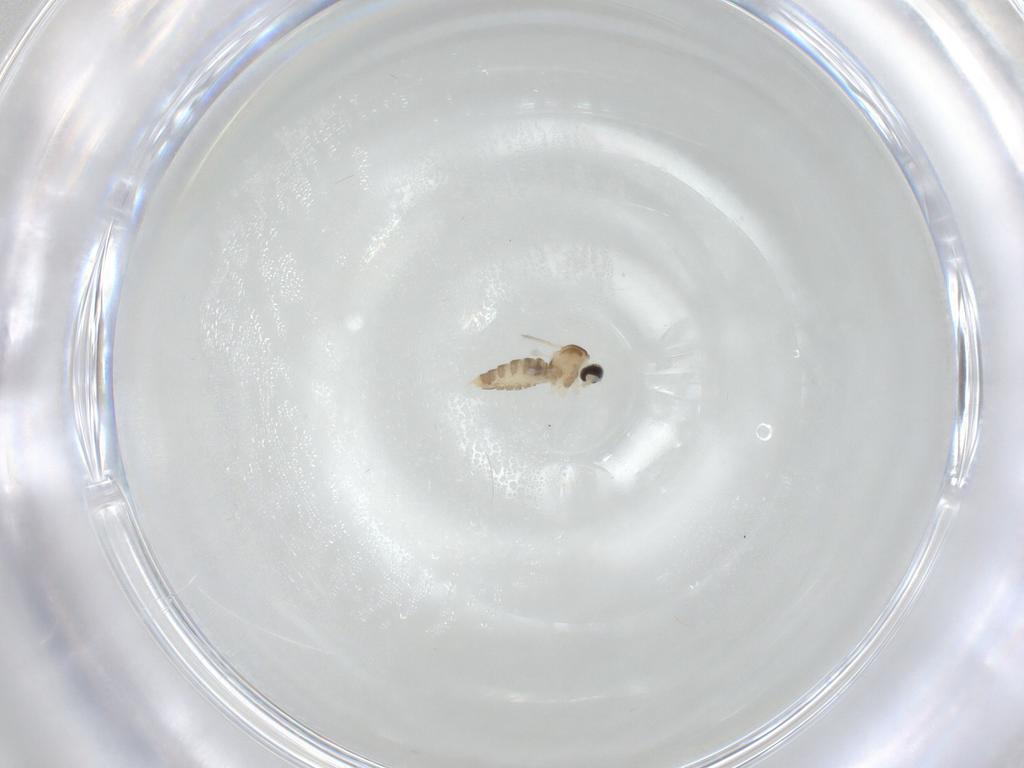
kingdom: Animalia
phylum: Arthropoda
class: Insecta
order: Diptera
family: Cecidomyiidae
